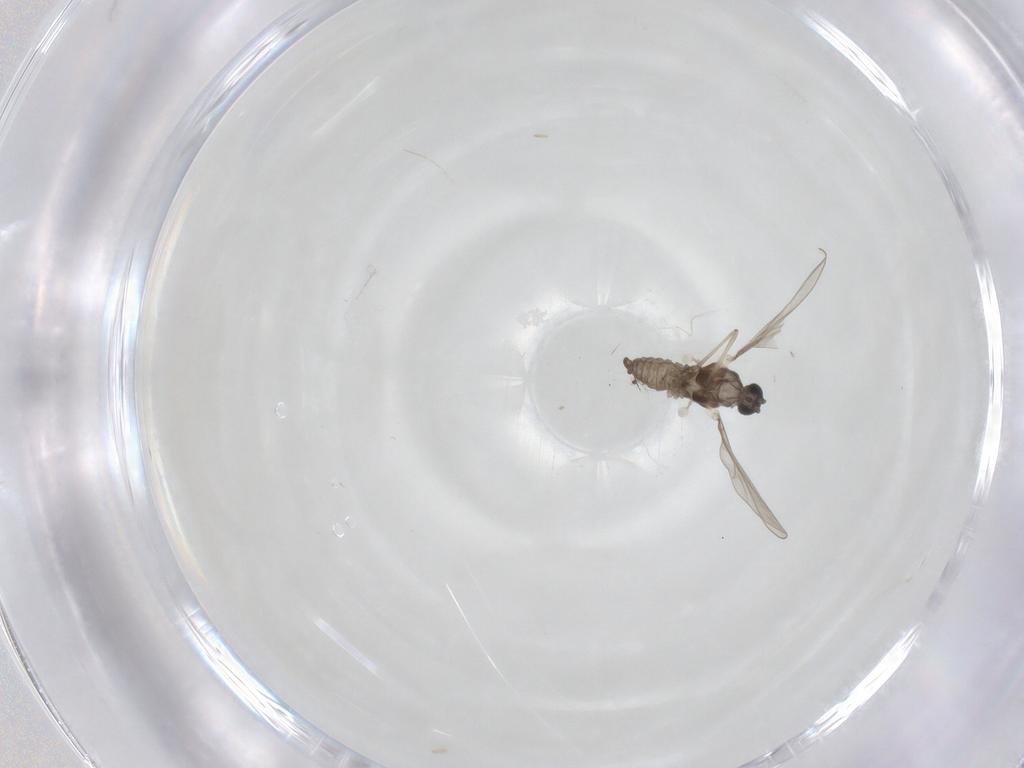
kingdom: Animalia
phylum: Arthropoda
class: Insecta
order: Diptera
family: Cecidomyiidae
